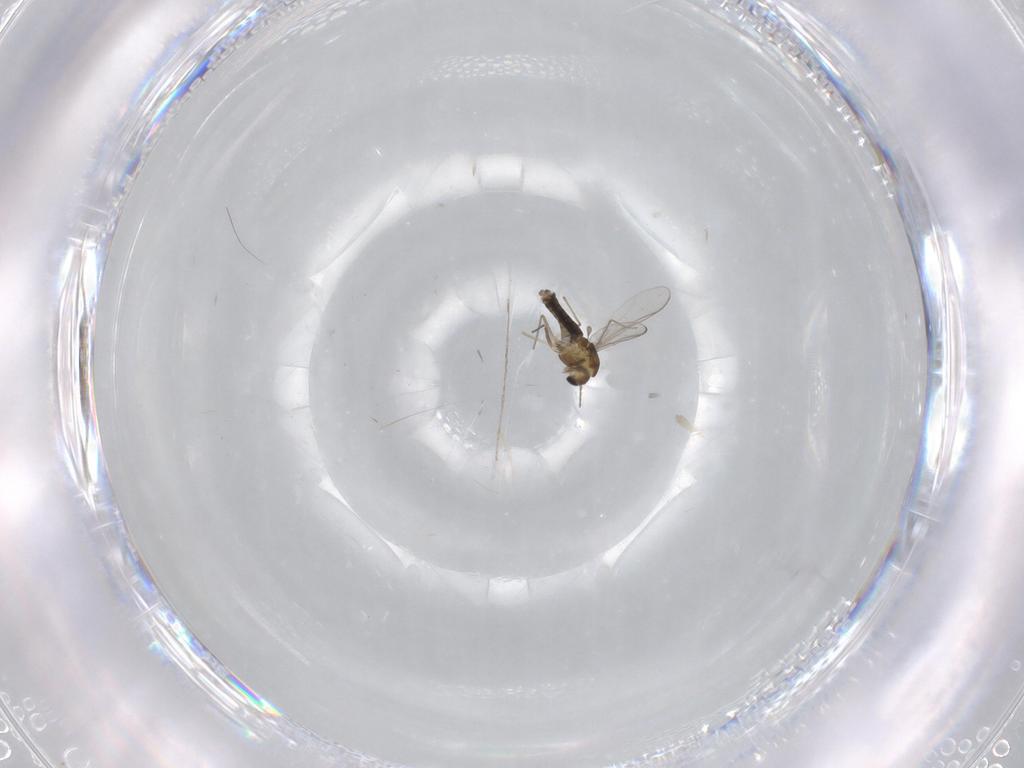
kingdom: Animalia
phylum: Arthropoda
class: Insecta
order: Diptera
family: Chironomidae
